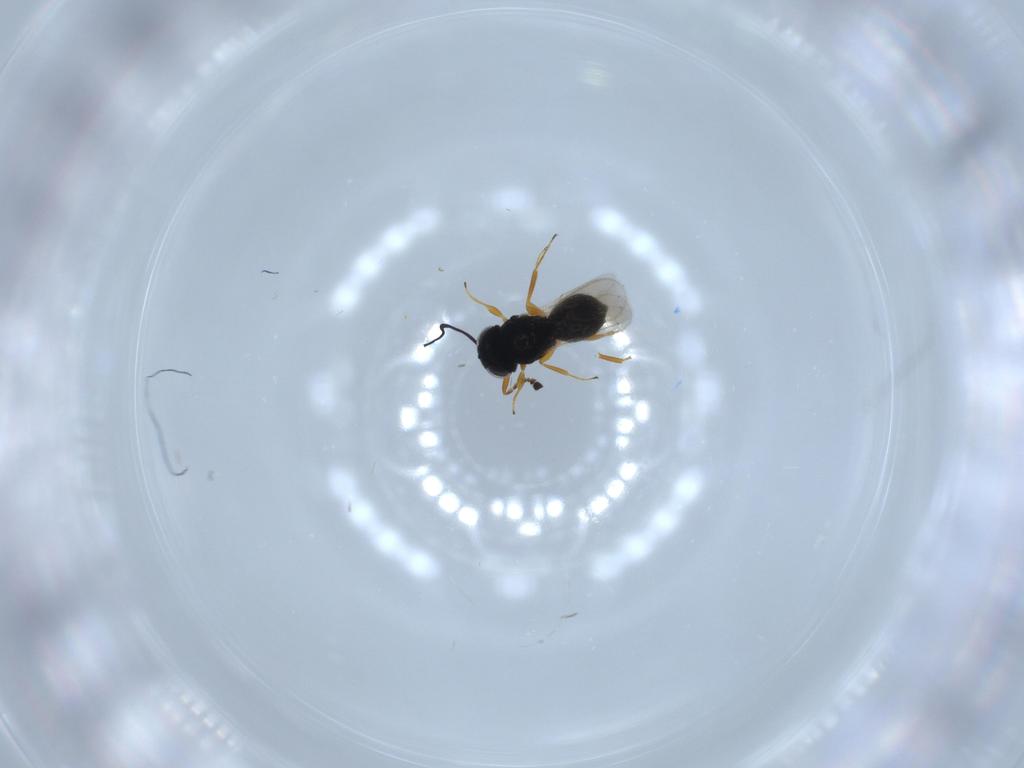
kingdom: Animalia
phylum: Arthropoda
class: Insecta
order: Hymenoptera
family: Scelionidae
